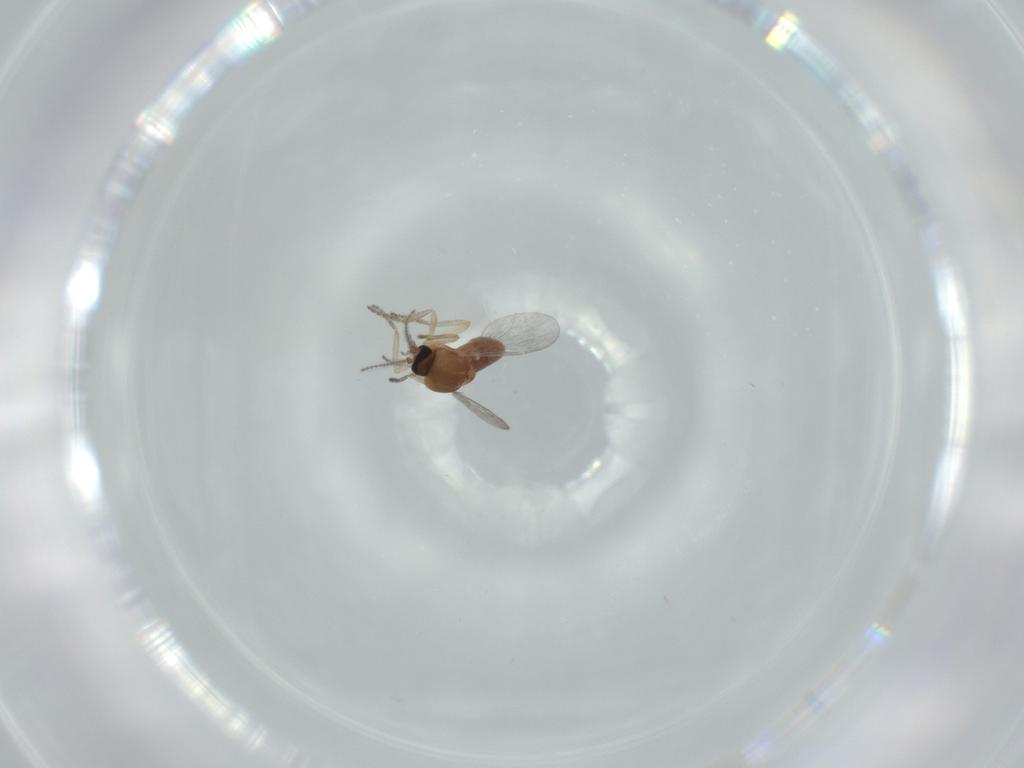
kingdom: Animalia
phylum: Arthropoda
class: Insecta
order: Diptera
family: Ceratopogonidae
